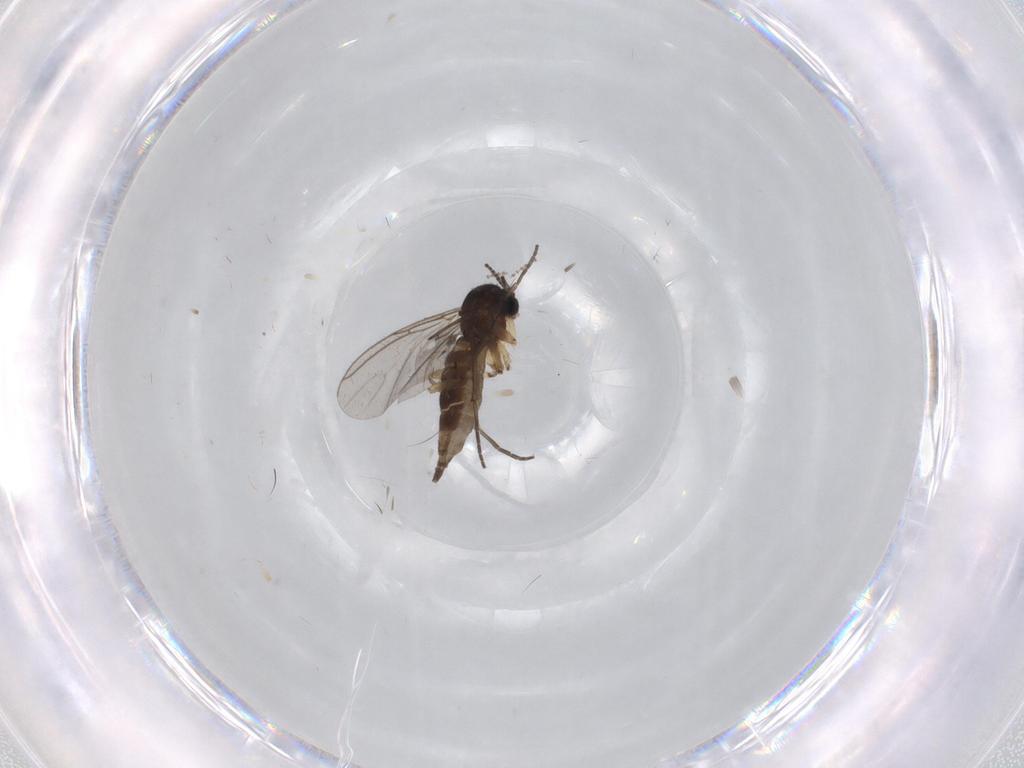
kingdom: Animalia
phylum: Arthropoda
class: Insecta
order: Diptera
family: Sciaridae
